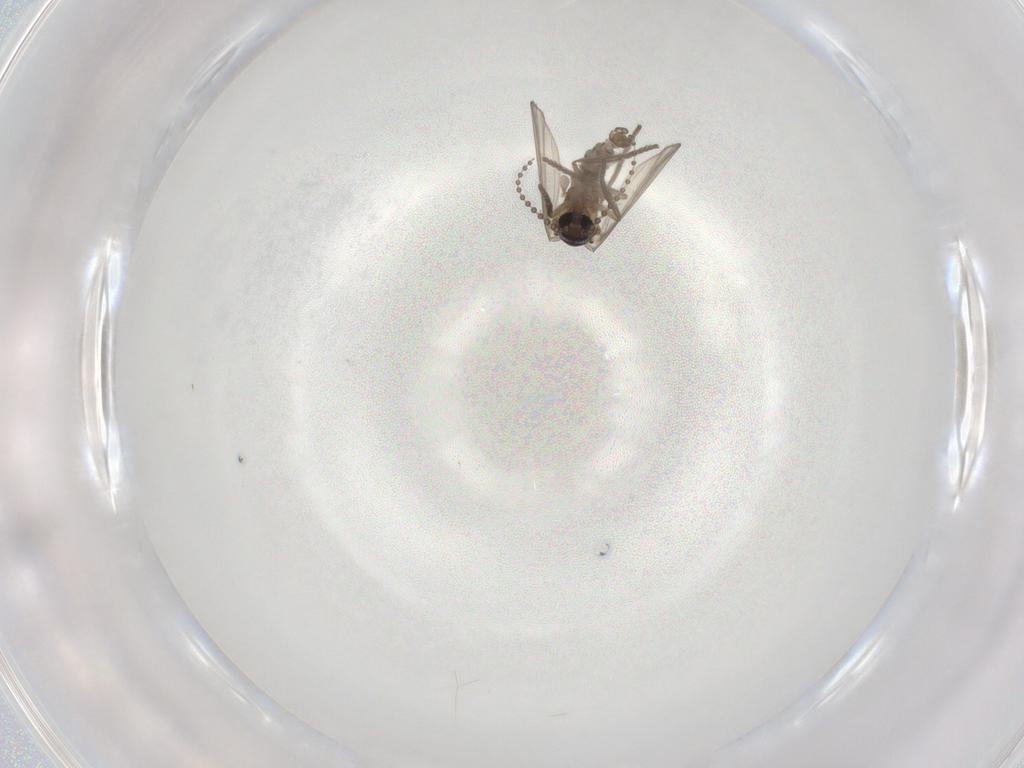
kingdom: Animalia
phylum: Arthropoda
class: Insecta
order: Diptera
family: Psychodidae
